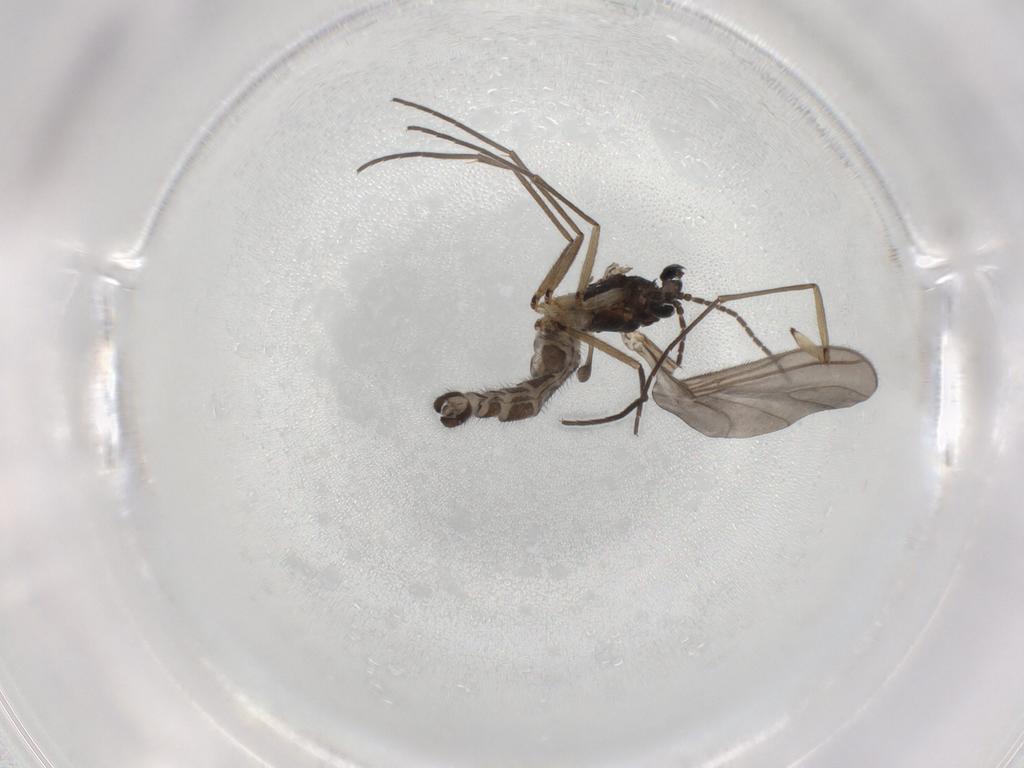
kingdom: Animalia
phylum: Arthropoda
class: Insecta
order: Diptera
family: Sciaridae
